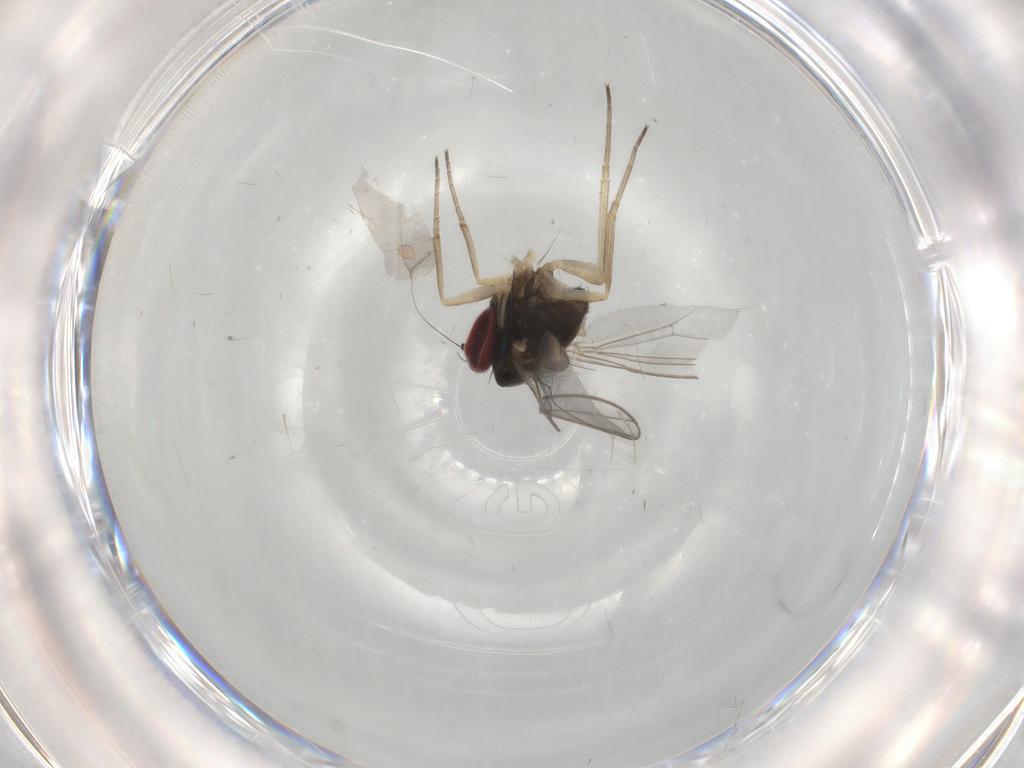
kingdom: Animalia
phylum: Arthropoda
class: Insecta
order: Diptera
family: Dolichopodidae
